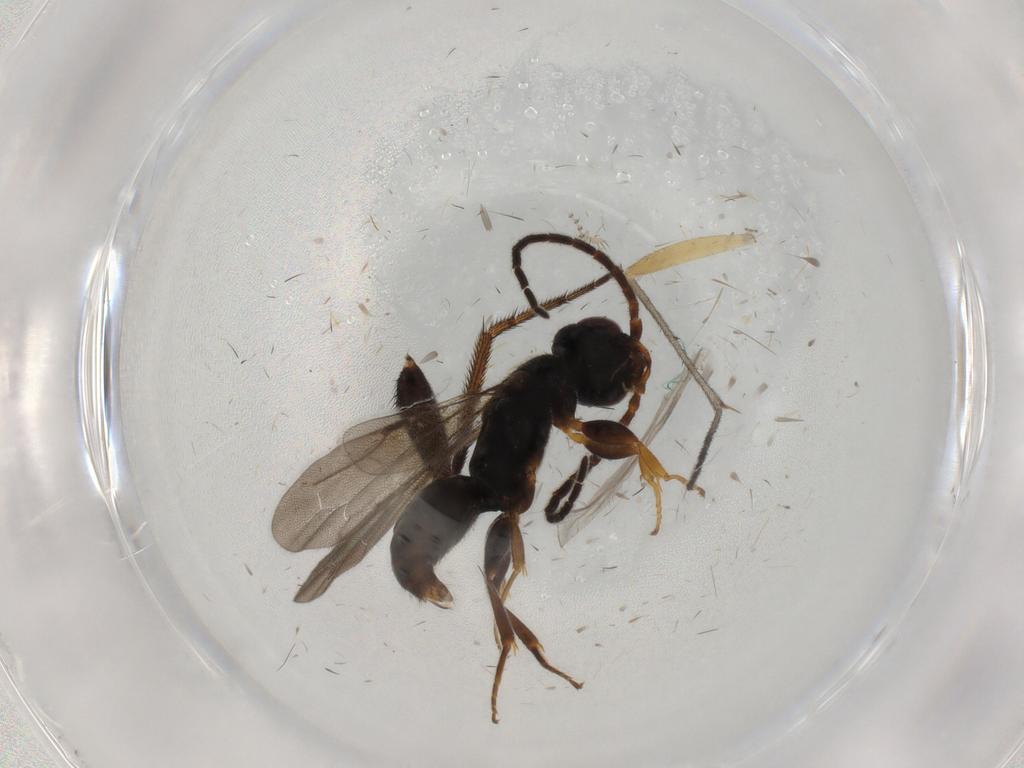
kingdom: Animalia
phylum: Arthropoda
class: Insecta
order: Hymenoptera
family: Bethylidae
